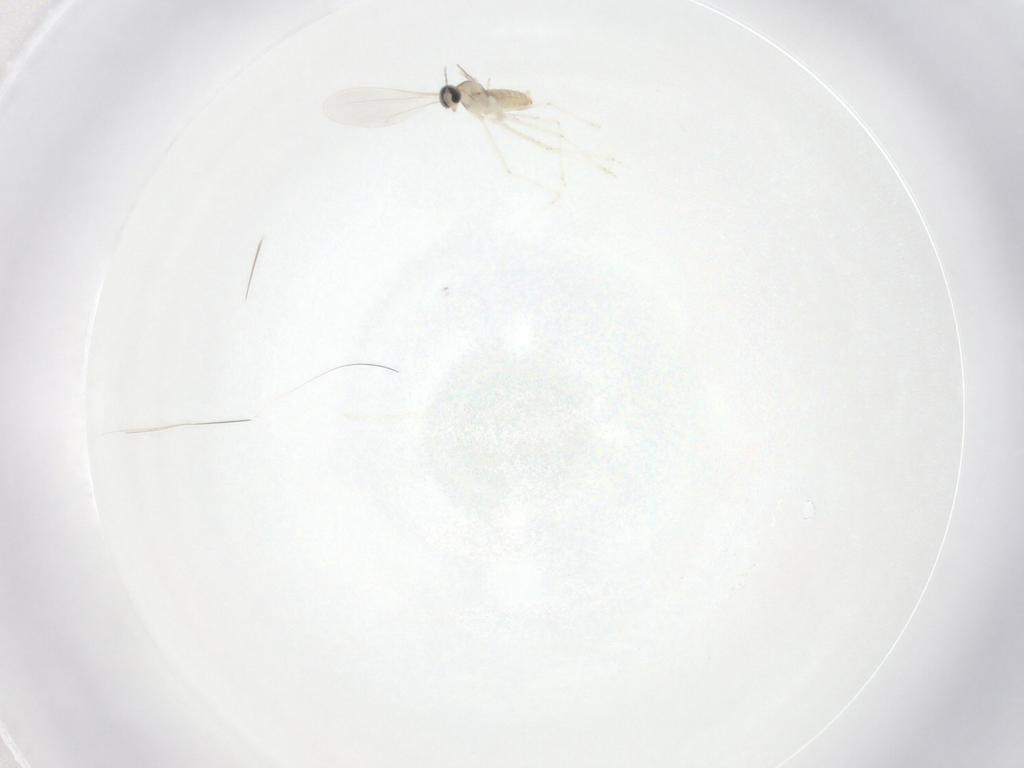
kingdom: Animalia
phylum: Arthropoda
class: Insecta
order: Diptera
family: Cecidomyiidae
